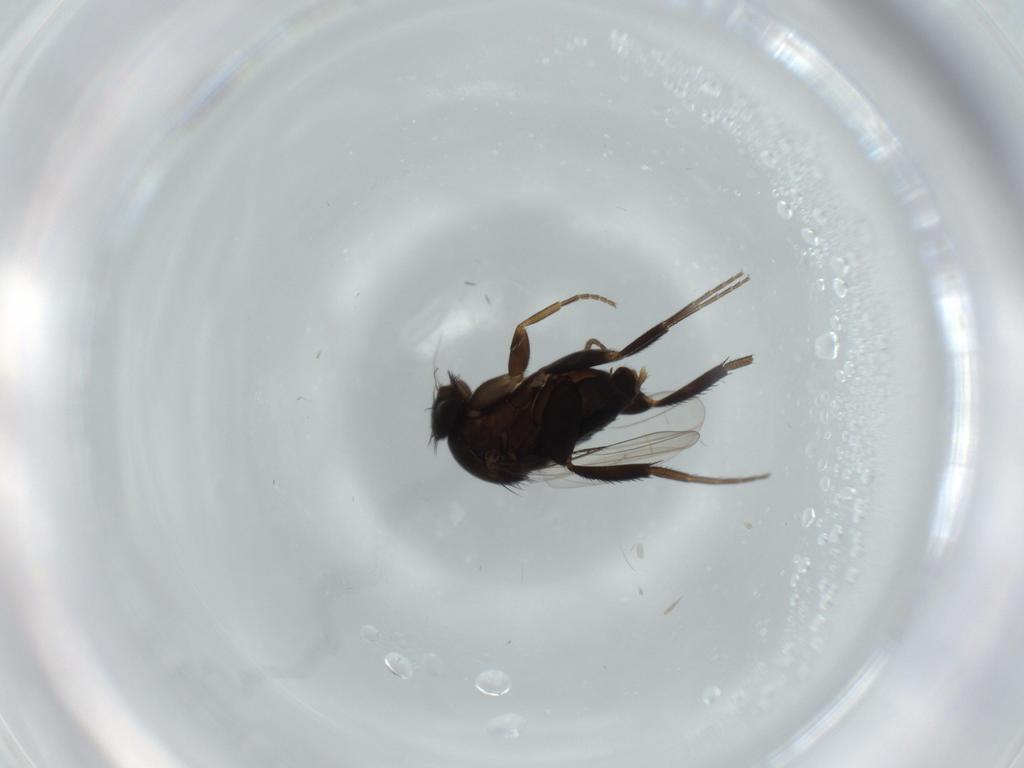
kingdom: Animalia
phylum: Arthropoda
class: Insecta
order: Diptera
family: Phoridae
